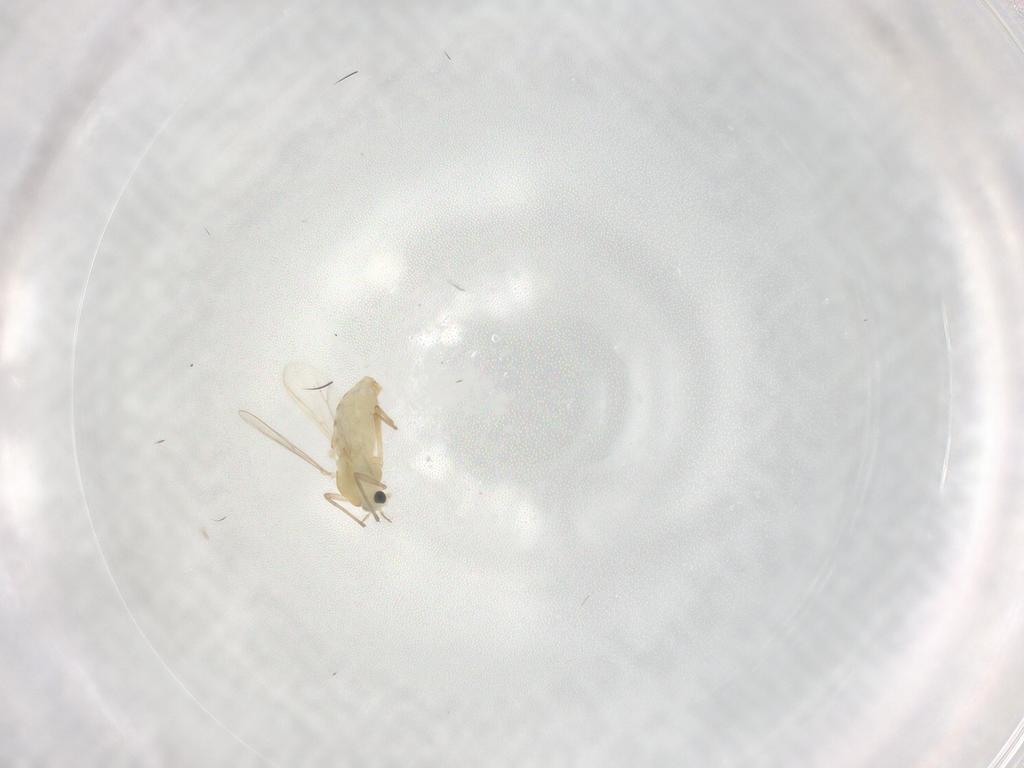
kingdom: Animalia
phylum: Arthropoda
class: Insecta
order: Diptera
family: Chironomidae
